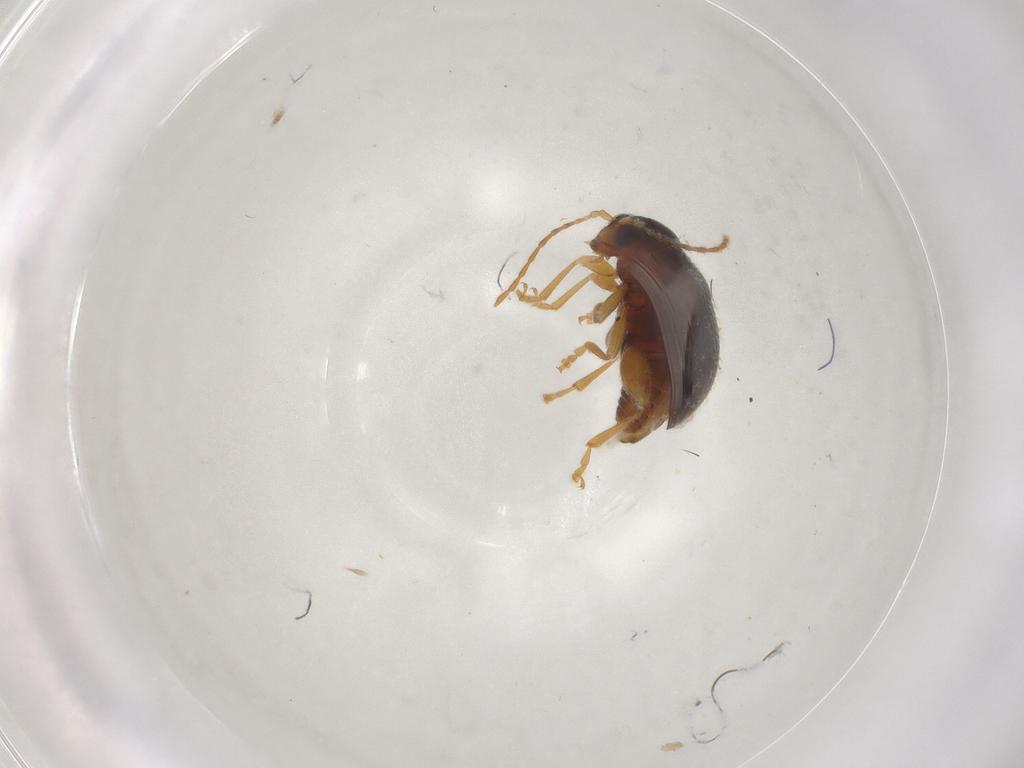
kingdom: Animalia
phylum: Arthropoda
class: Insecta
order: Coleoptera
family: Chrysomelidae
